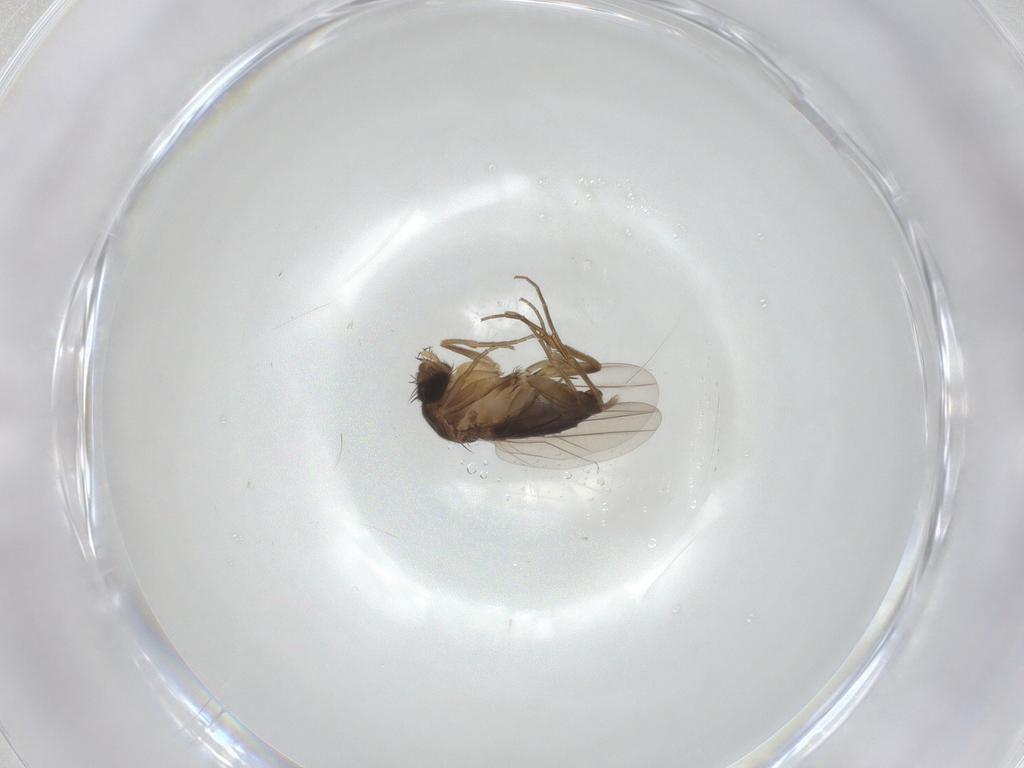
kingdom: Animalia
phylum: Arthropoda
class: Insecta
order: Diptera
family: Phoridae
